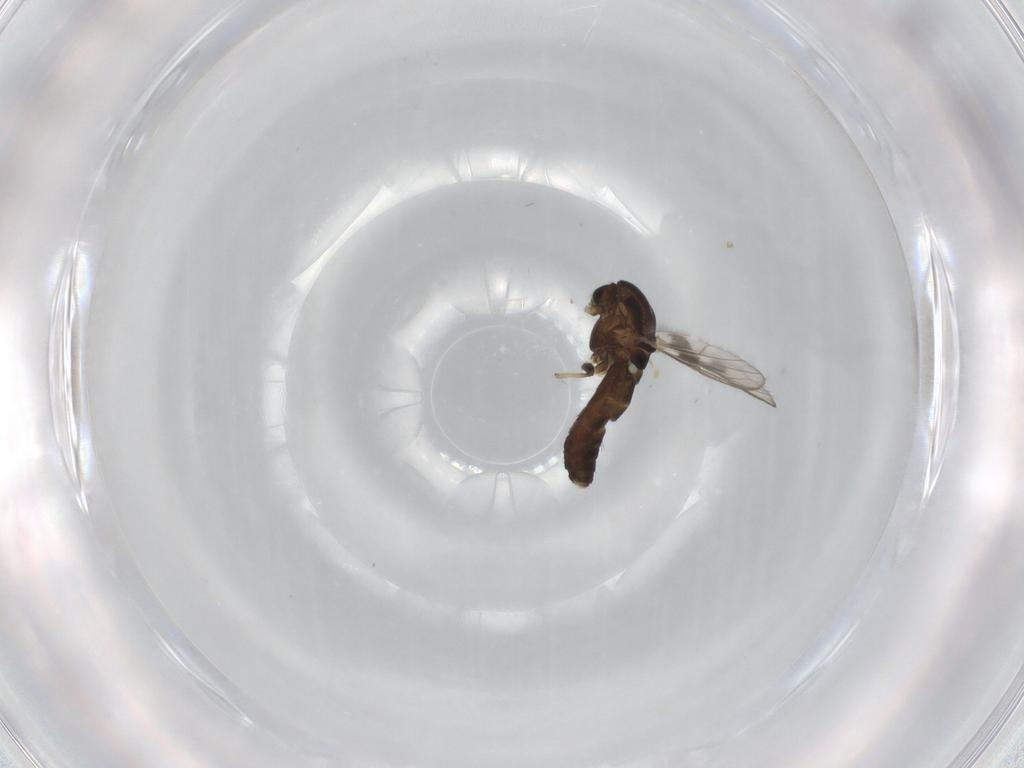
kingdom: Animalia
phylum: Arthropoda
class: Insecta
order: Diptera
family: Chironomidae
